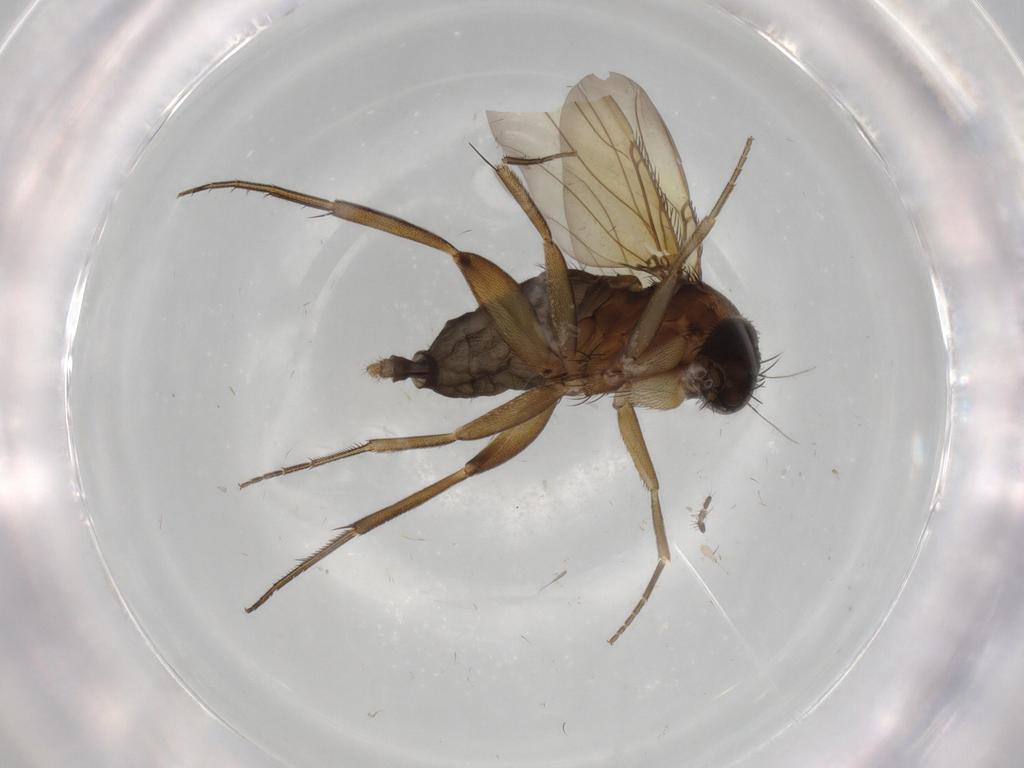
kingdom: Animalia
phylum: Arthropoda
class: Insecta
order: Diptera
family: Phoridae
